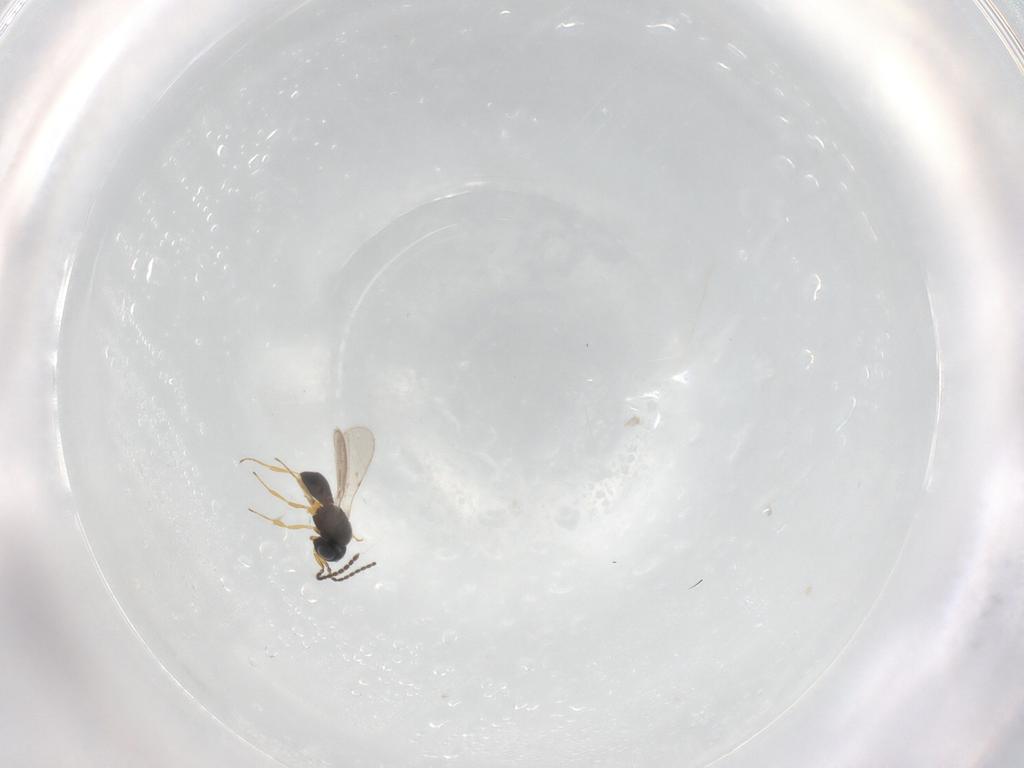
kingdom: Animalia
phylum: Arthropoda
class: Insecta
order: Hymenoptera
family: Scelionidae
